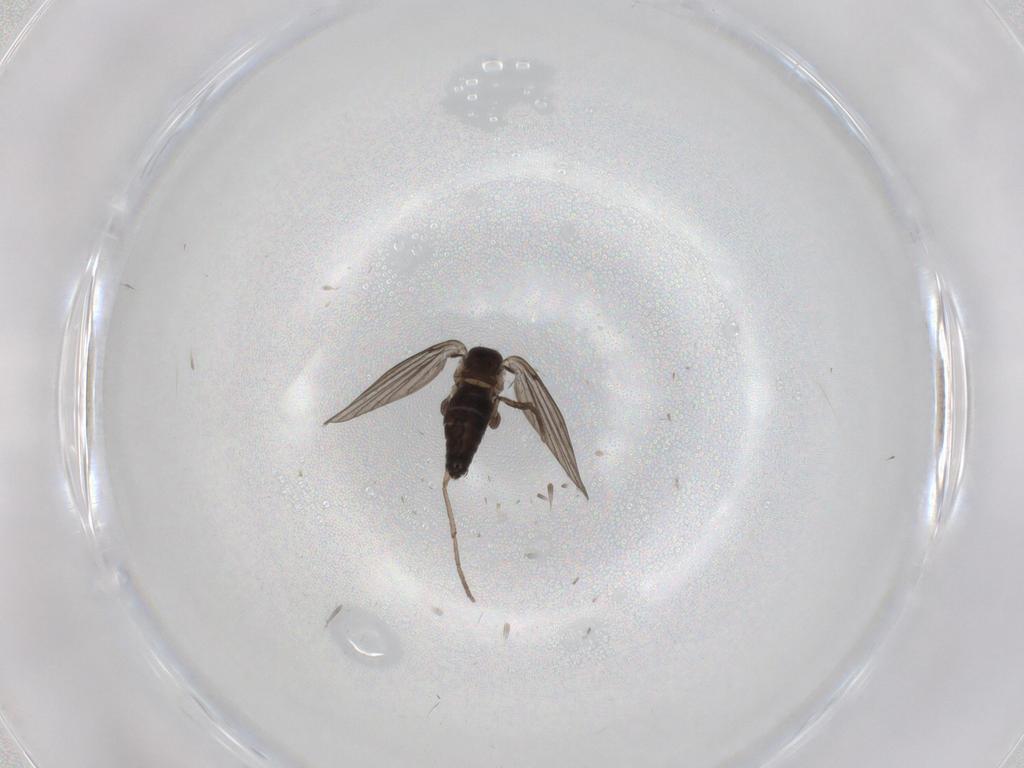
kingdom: Animalia
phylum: Arthropoda
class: Insecta
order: Diptera
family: Cecidomyiidae
